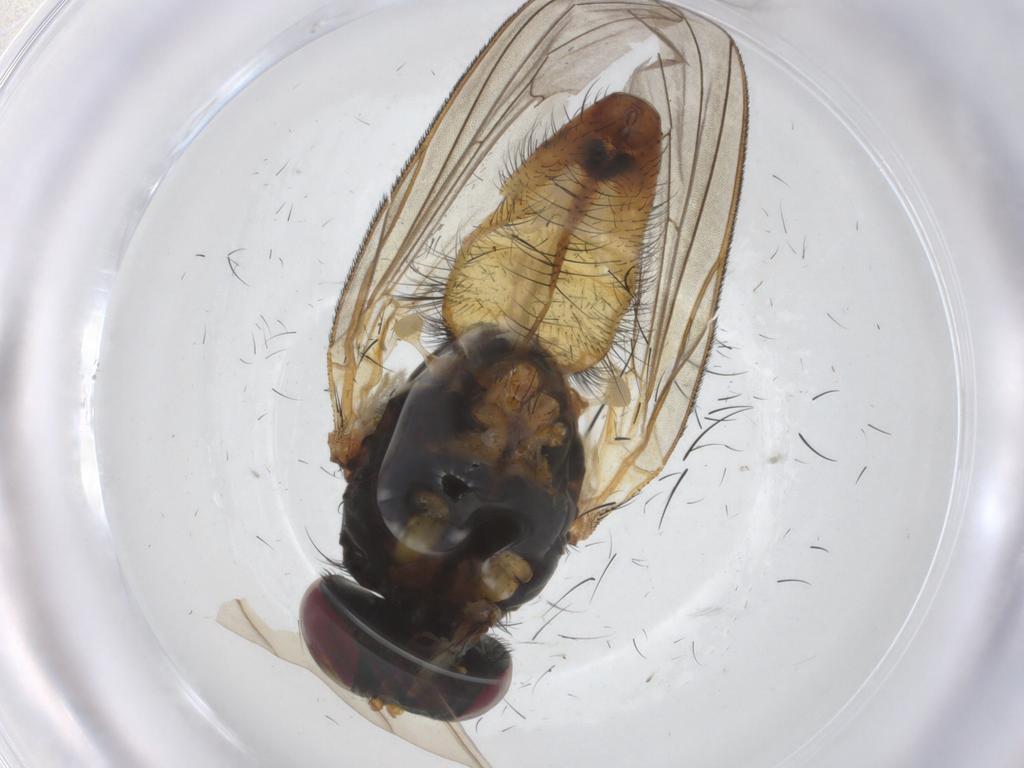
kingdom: Animalia
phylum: Arthropoda
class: Insecta
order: Diptera
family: Fannia
